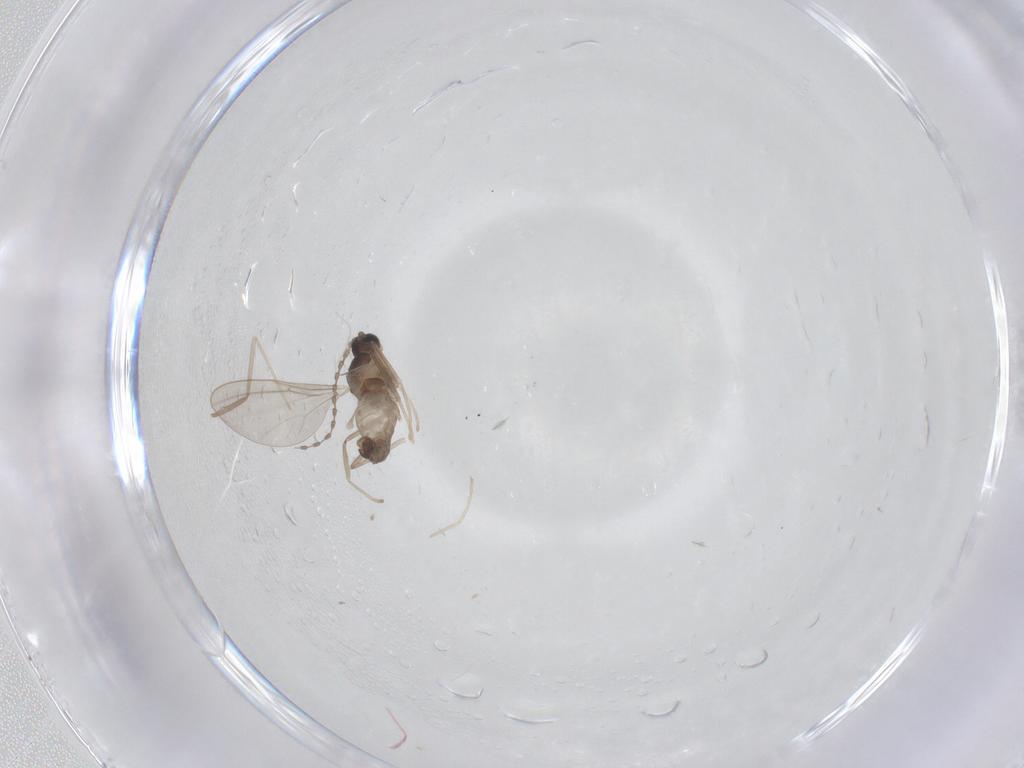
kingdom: Animalia
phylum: Arthropoda
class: Insecta
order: Diptera
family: Cecidomyiidae
